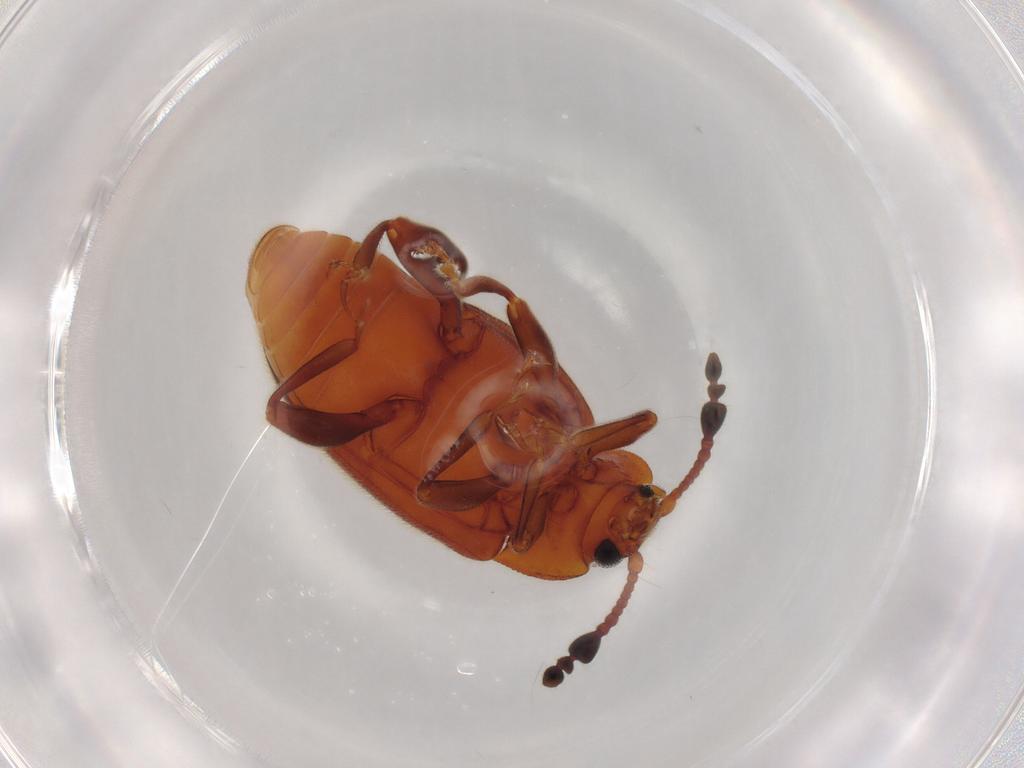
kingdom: Animalia
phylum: Arthropoda
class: Insecta
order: Coleoptera
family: Endomychidae
